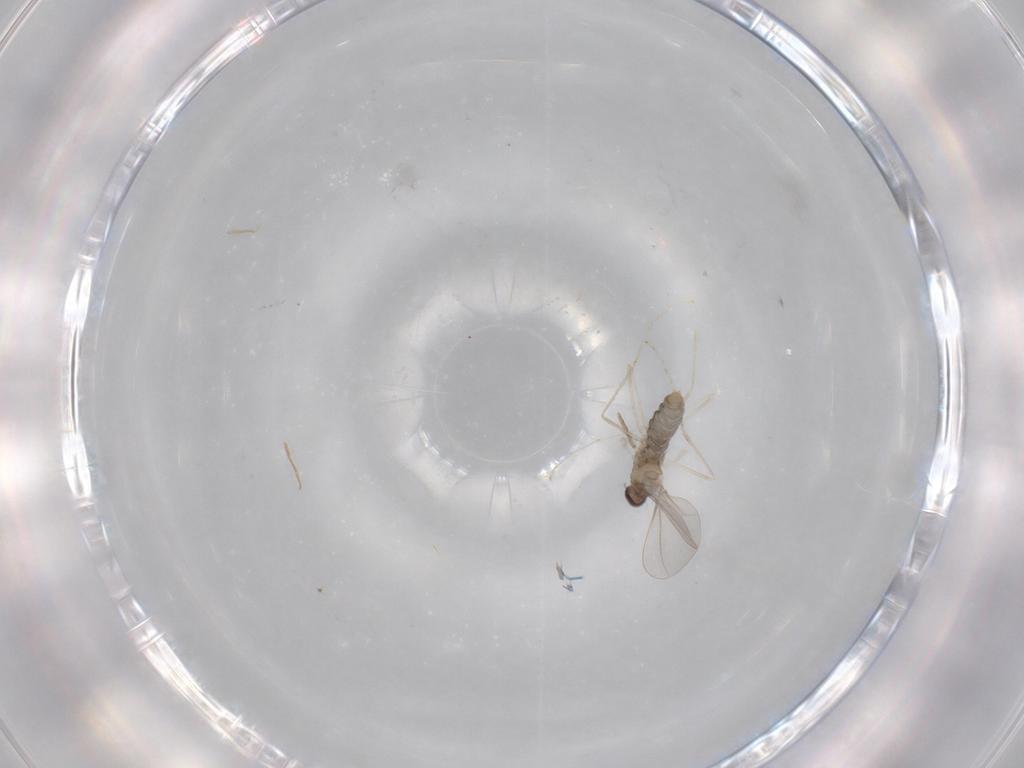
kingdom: Animalia
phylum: Arthropoda
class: Insecta
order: Diptera
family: Cecidomyiidae
